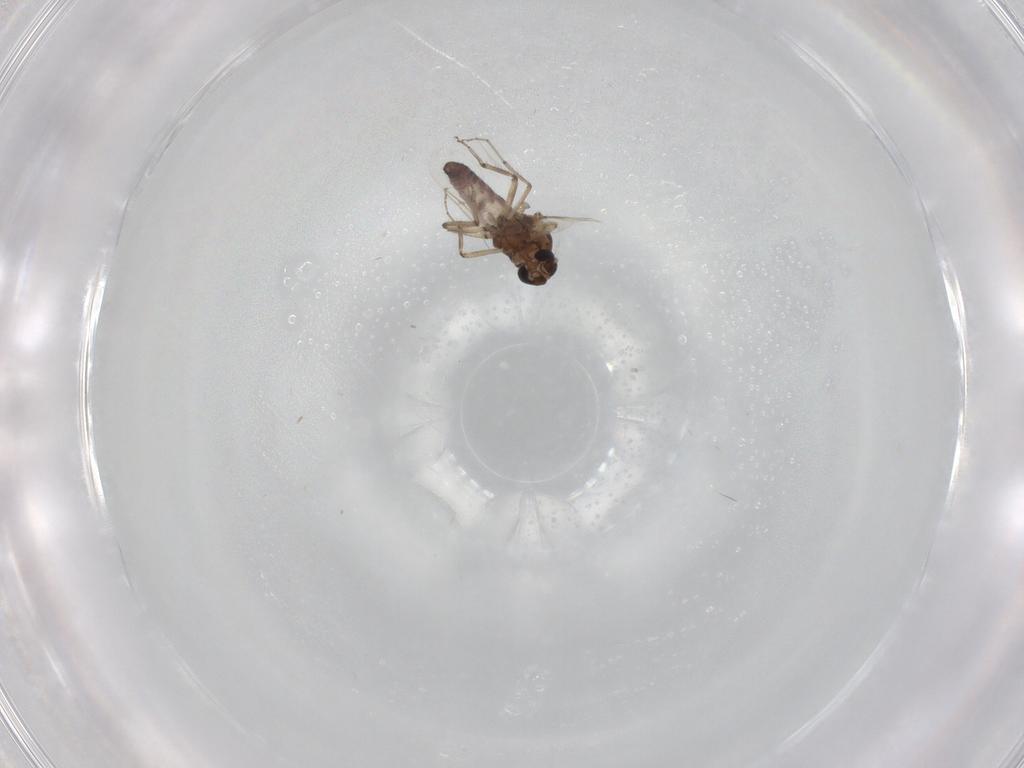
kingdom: Animalia
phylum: Arthropoda
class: Insecta
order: Diptera
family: Ceratopogonidae
